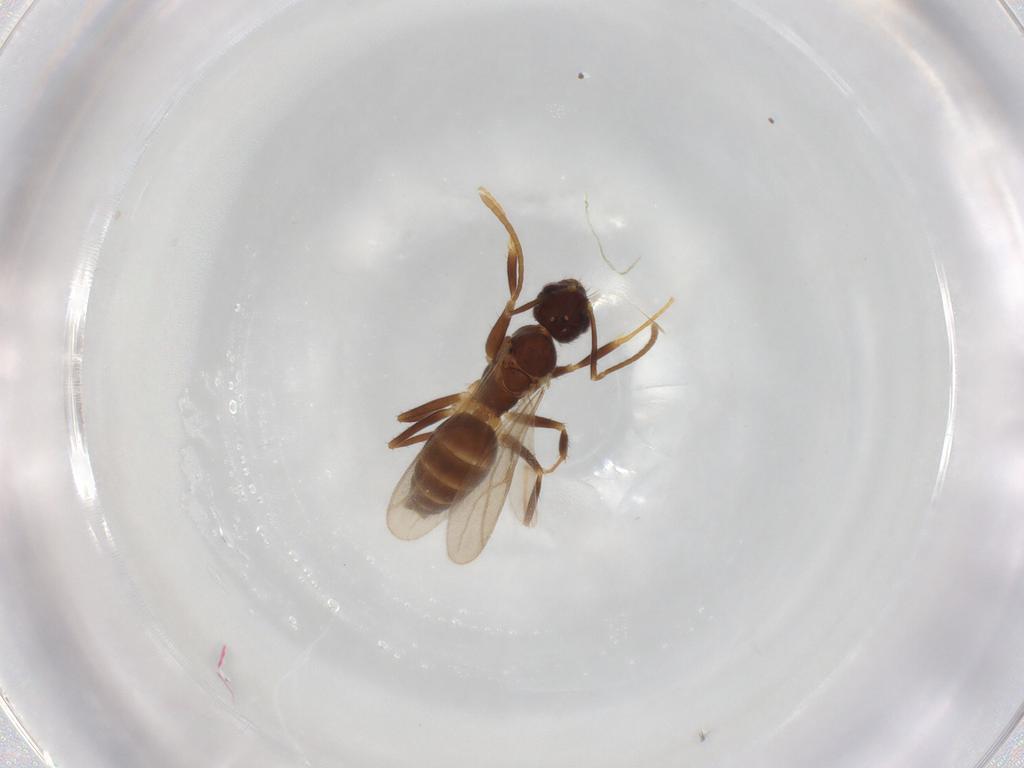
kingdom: Animalia
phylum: Arthropoda
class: Insecta
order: Hymenoptera
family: Formicidae
